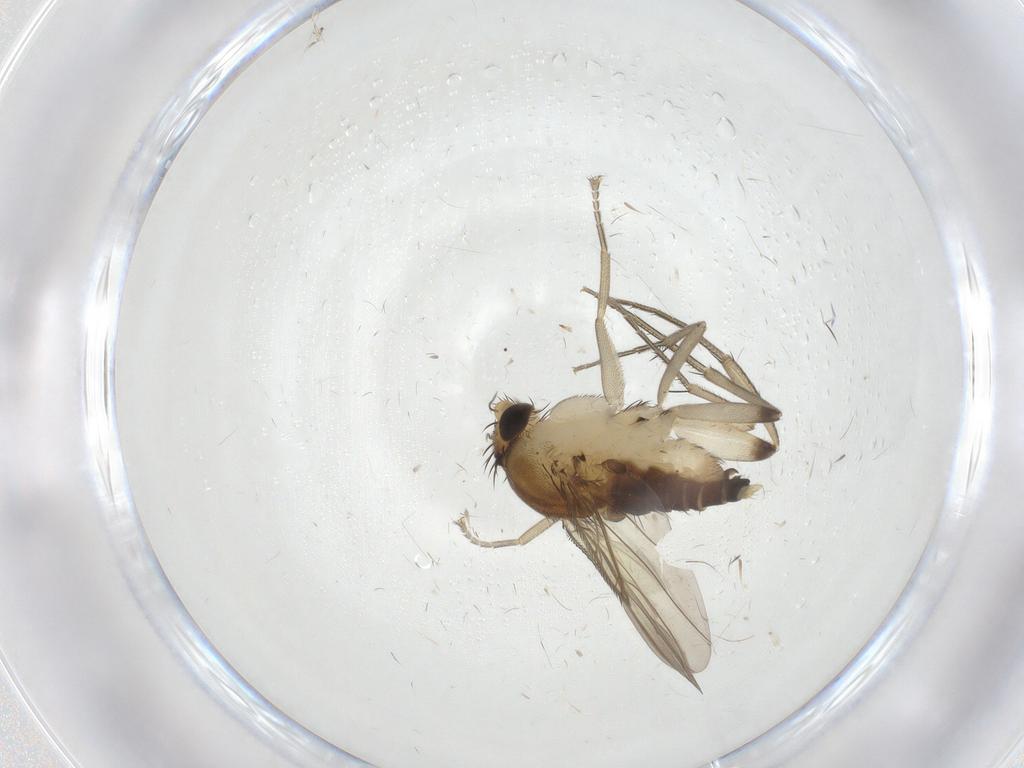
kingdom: Animalia
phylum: Arthropoda
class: Insecta
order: Diptera
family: Phoridae
